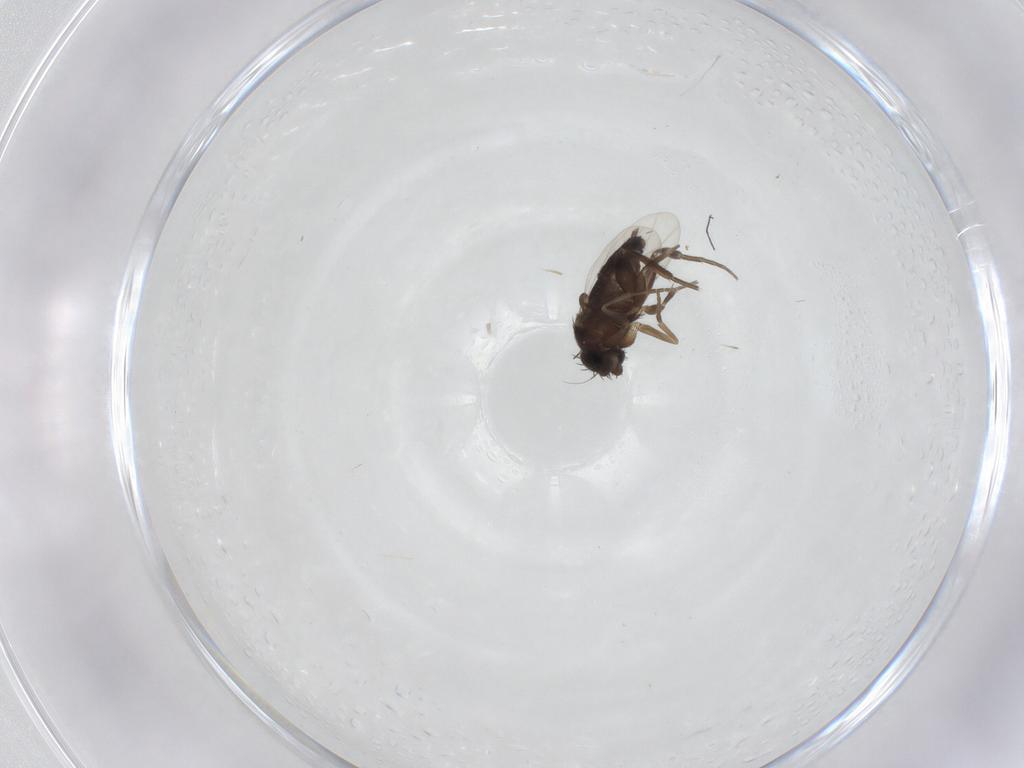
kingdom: Animalia
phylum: Arthropoda
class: Insecta
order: Diptera
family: Phoridae
